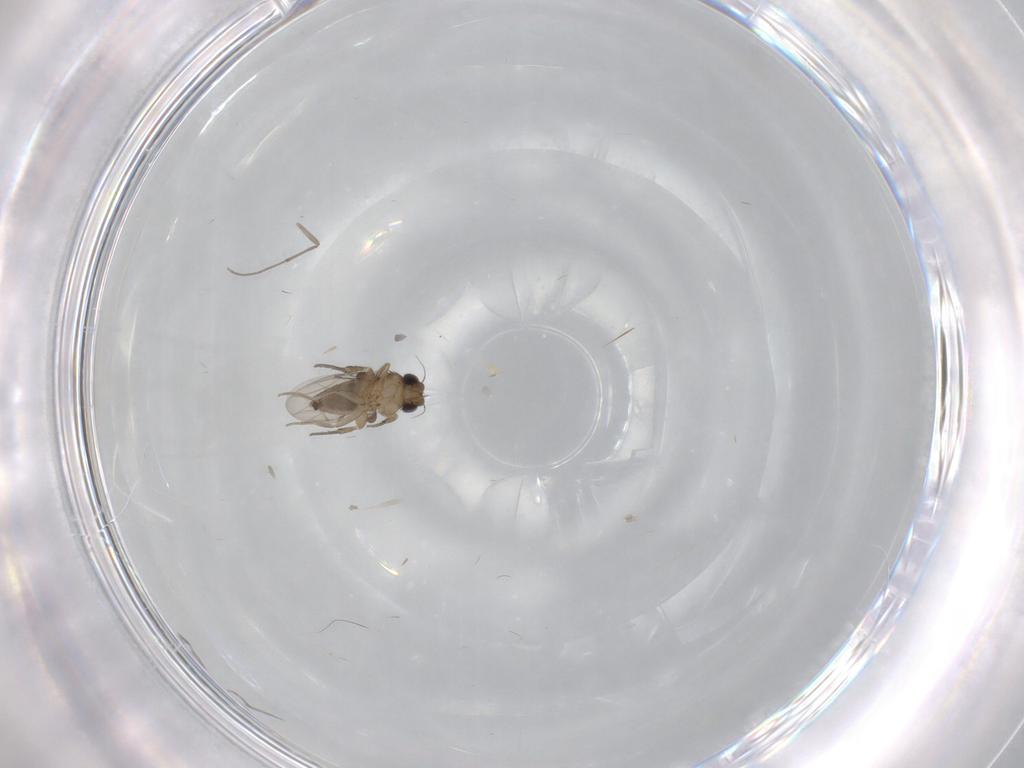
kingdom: Animalia
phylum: Arthropoda
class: Insecta
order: Diptera
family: Phoridae
